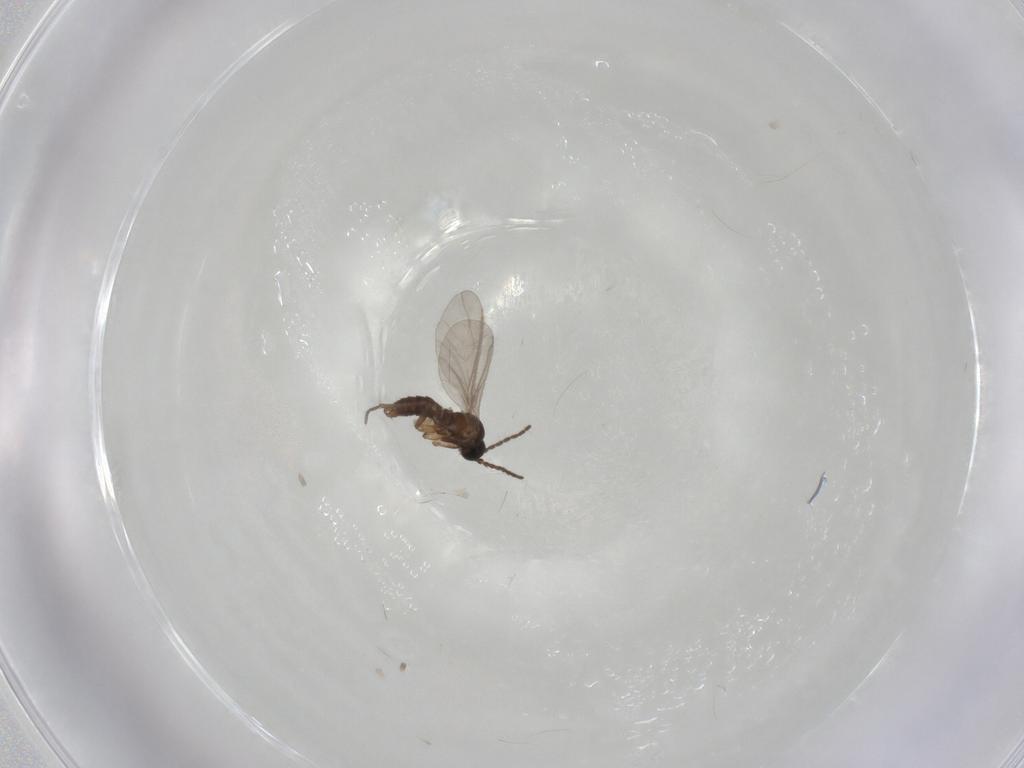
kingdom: Animalia
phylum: Arthropoda
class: Insecta
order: Diptera
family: Sciaridae
